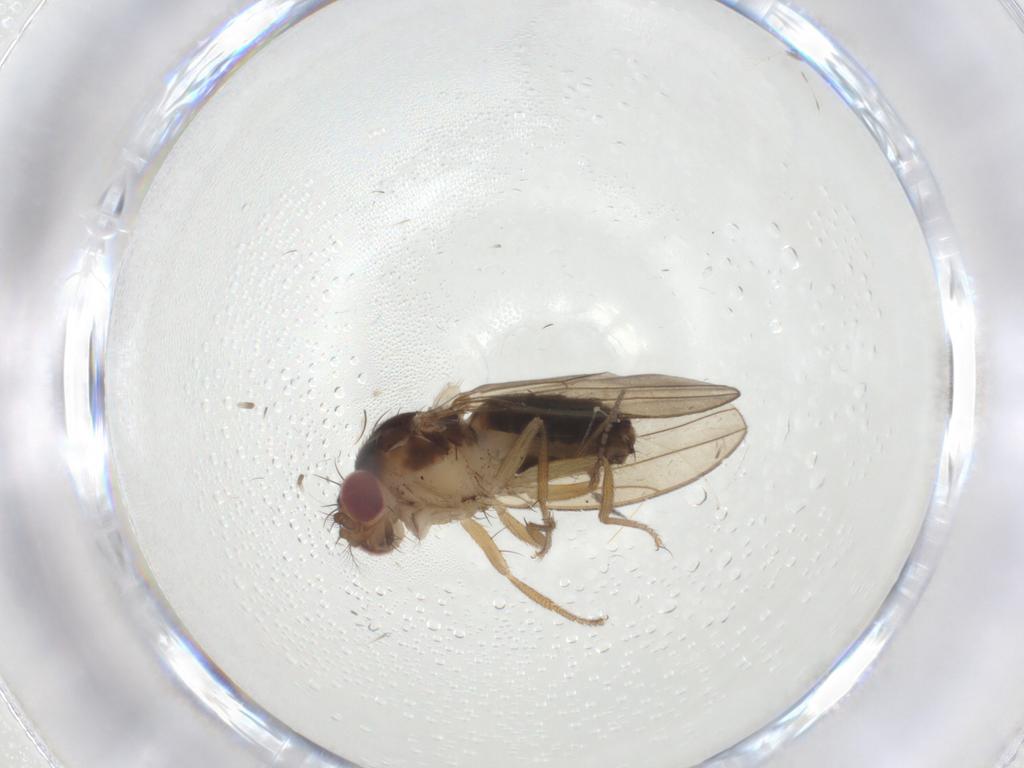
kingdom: Animalia
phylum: Arthropoda
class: Insecta
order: Diptera
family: Drosophilidae
